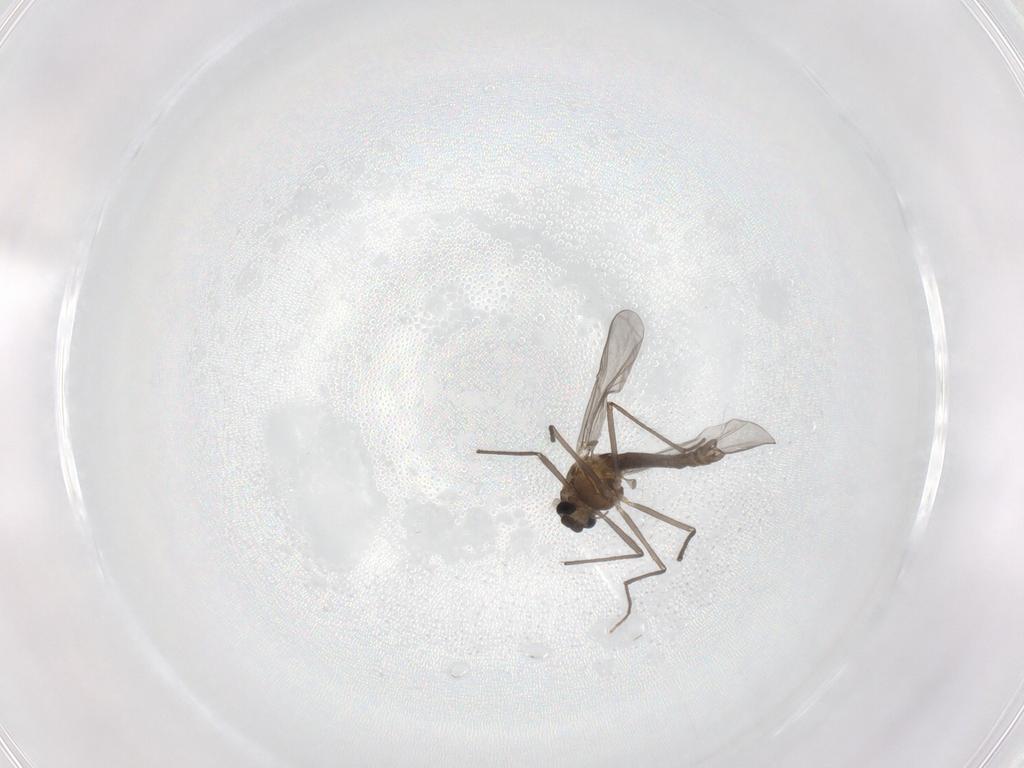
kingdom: Animalia
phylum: Arthropoda
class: Insecta
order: Diptera
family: Chironomidae
